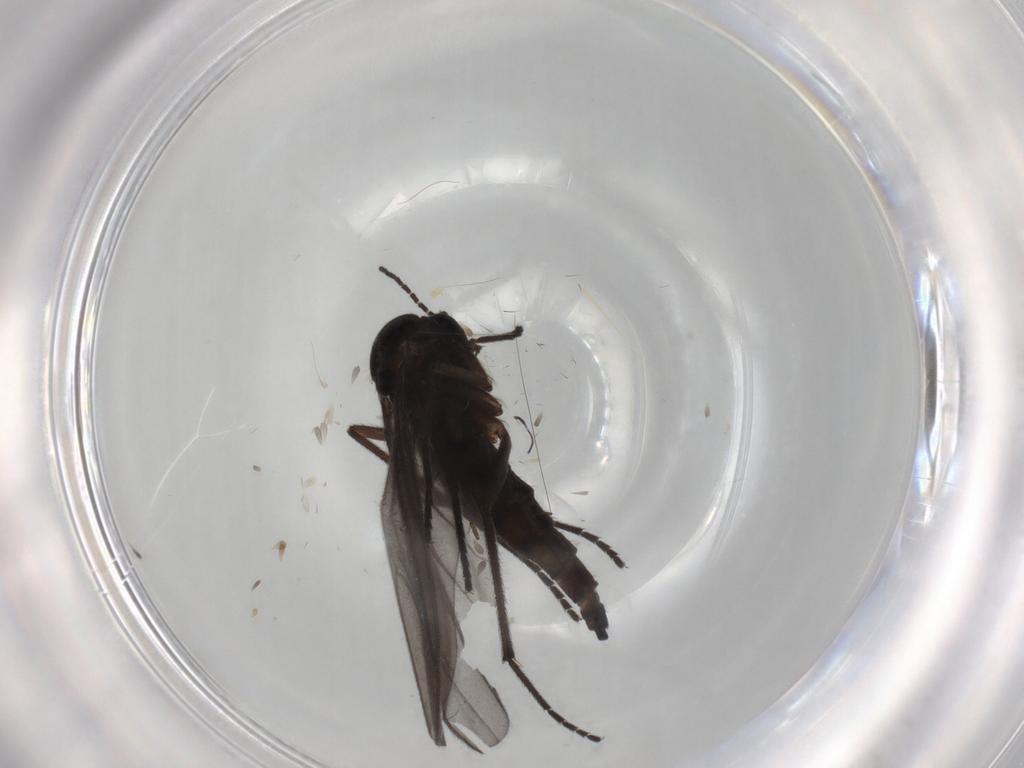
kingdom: Animalia
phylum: Arthropoda
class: Insecta
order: Diptera
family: Sciaridae
